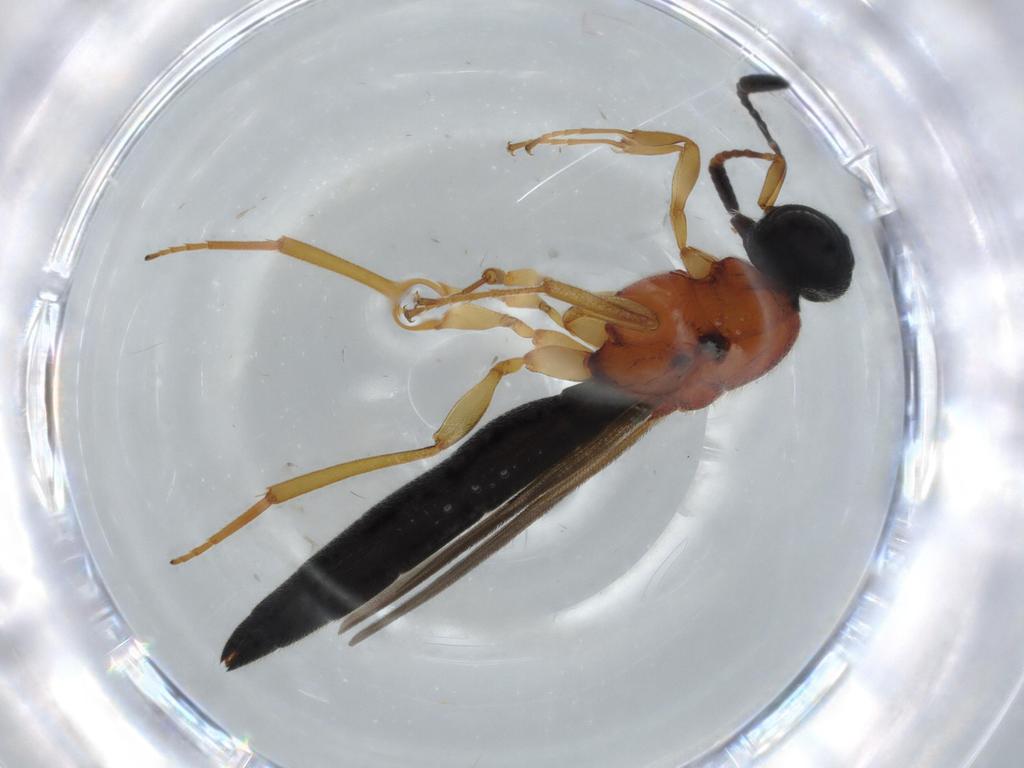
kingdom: Animalia
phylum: Arthropoda
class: Insecta
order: Hymenoptera
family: Scelionidae
